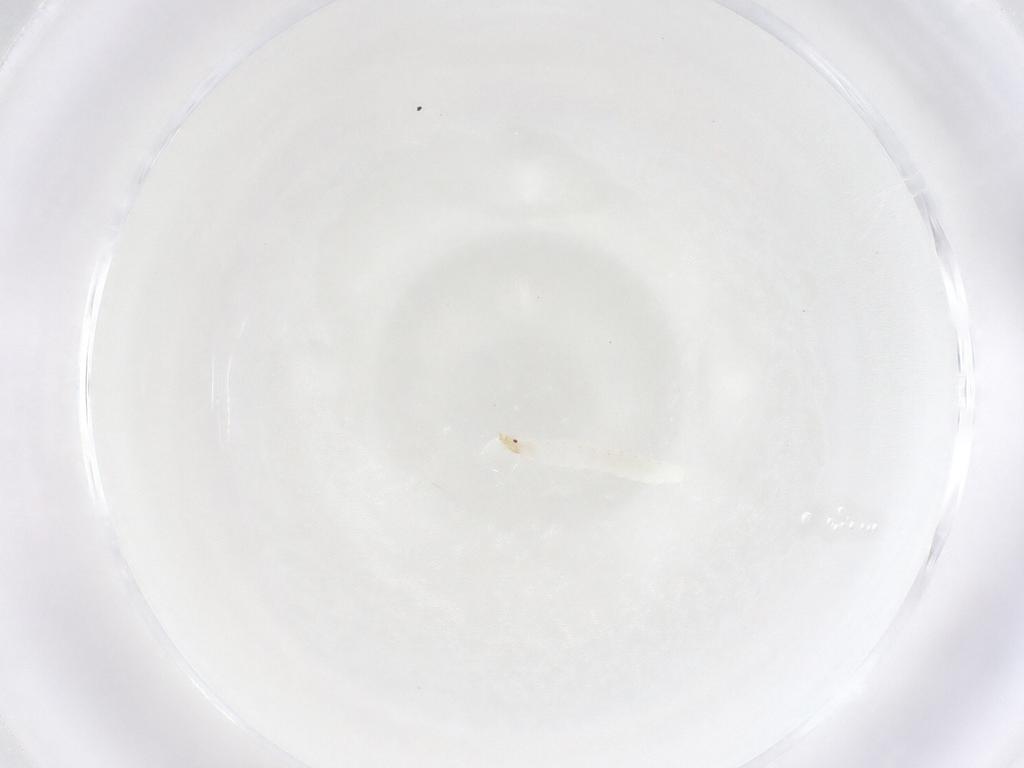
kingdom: Animalia
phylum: Arthropoda
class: Insecta
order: Diptera
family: Stratiomyidae
